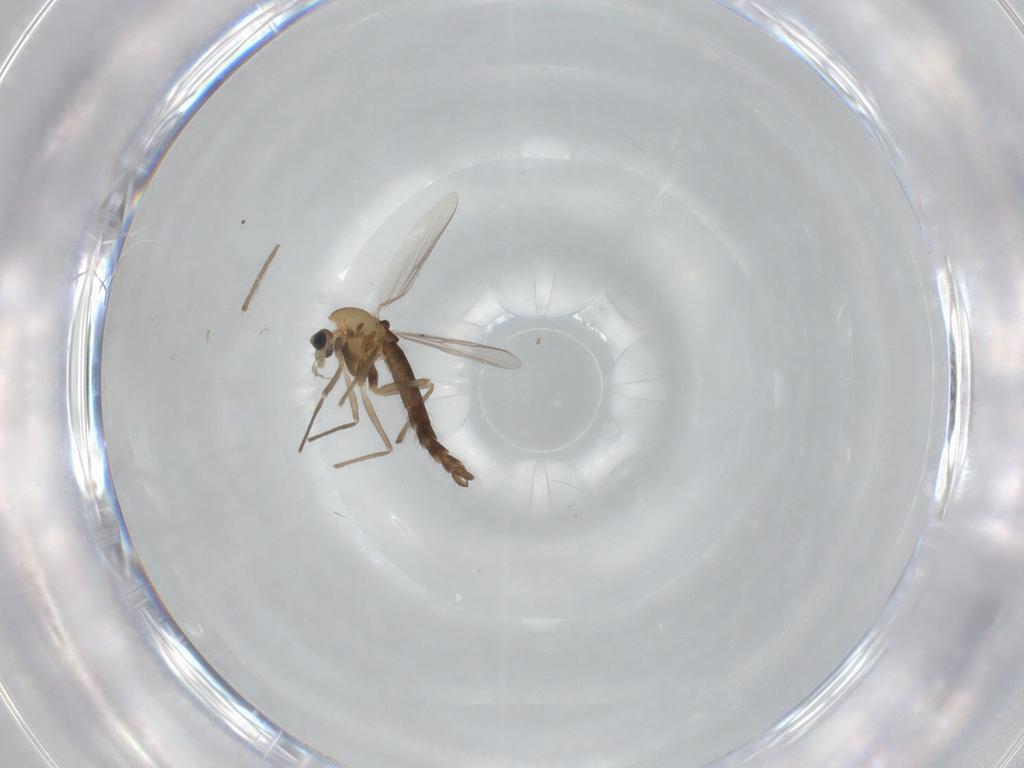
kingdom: Animalia
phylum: Arthropoda
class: Insecta
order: Diptera
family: Chironomidae
